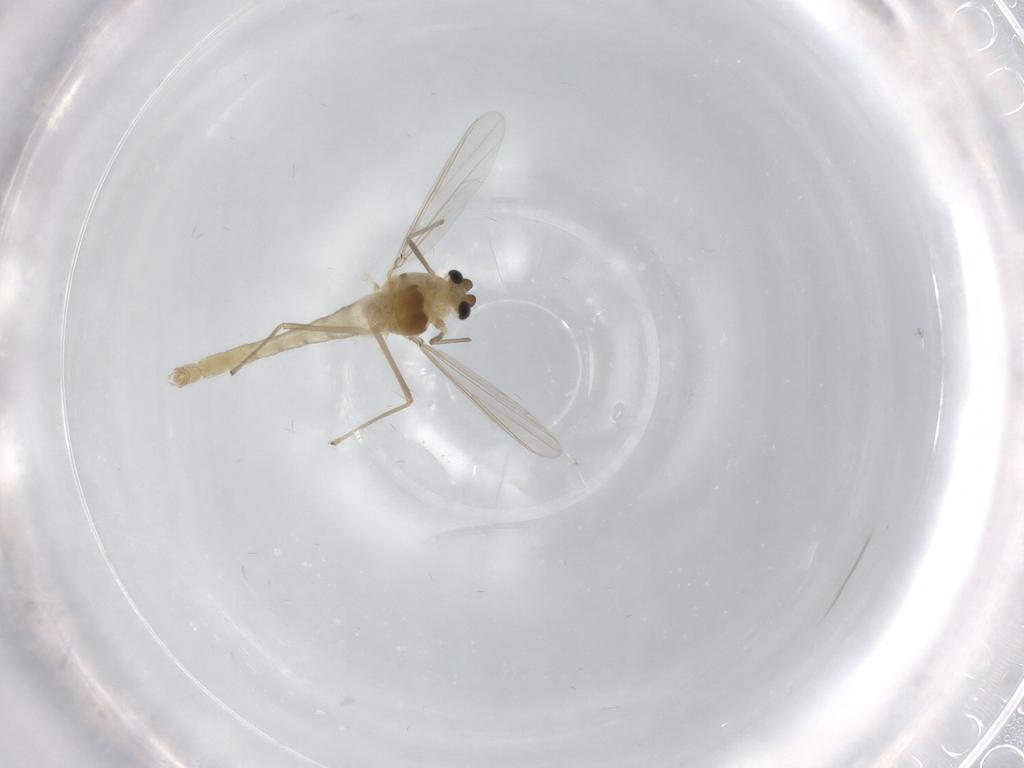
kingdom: Animalia
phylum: Arthropoda
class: Insecta
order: Diptera
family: Chironomidae
